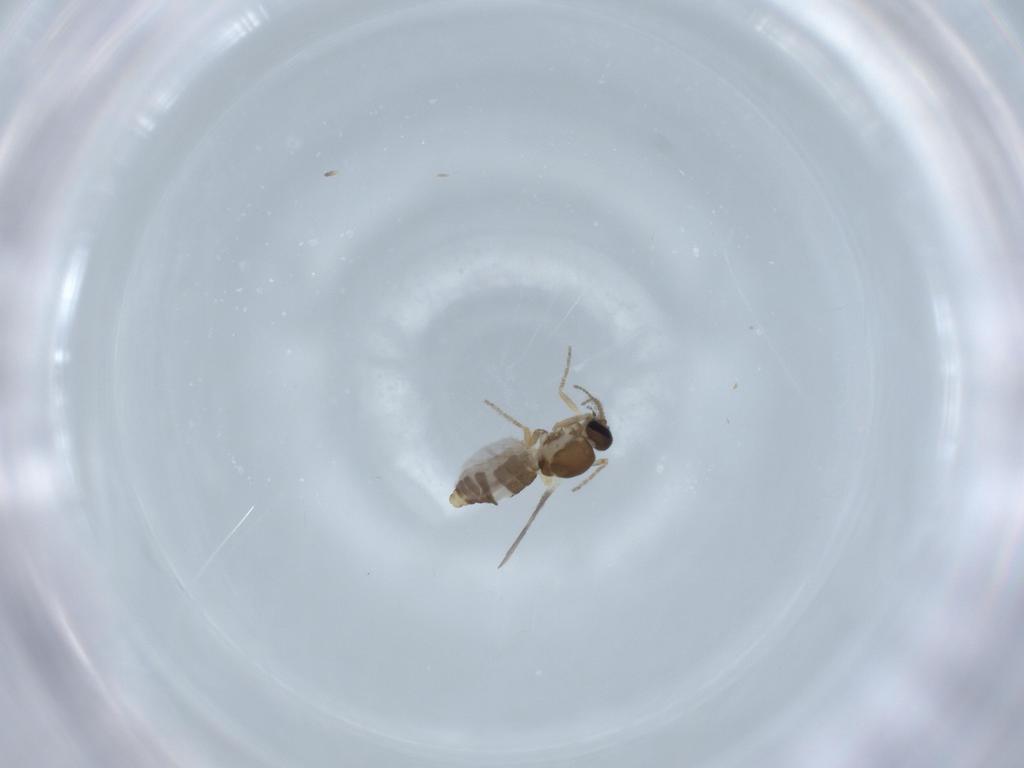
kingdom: Animalia
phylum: Arthropoda
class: Insecta
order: Diptera
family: Ceratopogonidae
